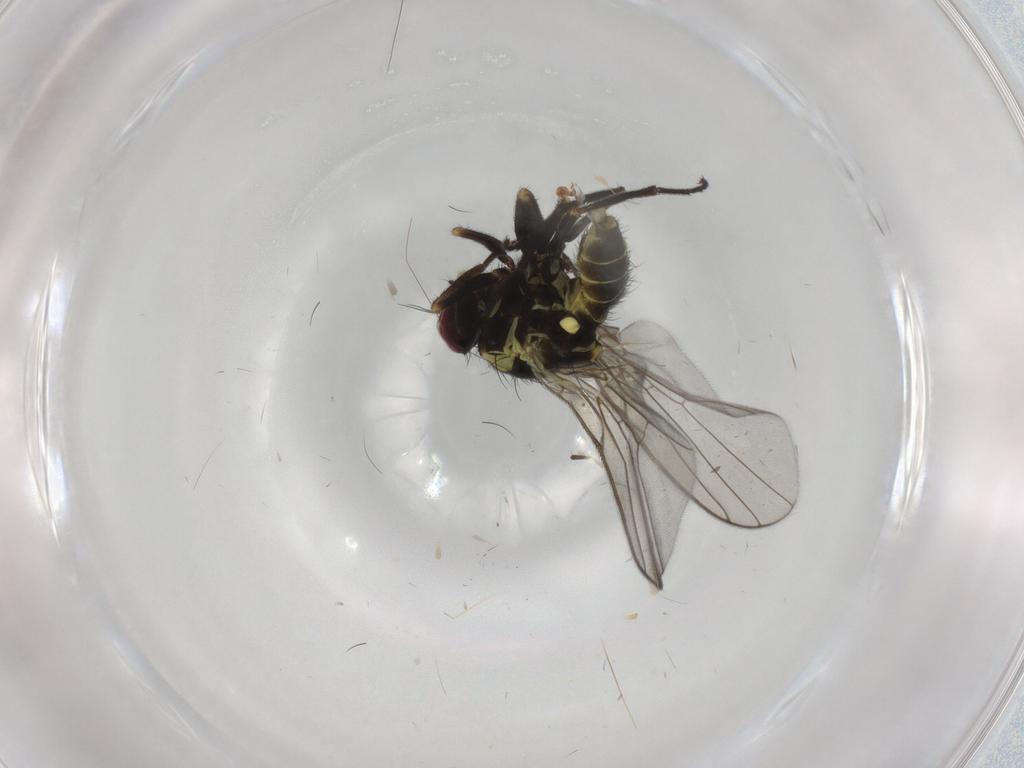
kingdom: Animalia
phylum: Arthropoda
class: Insecta
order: Diptera
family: Agromyzidae
